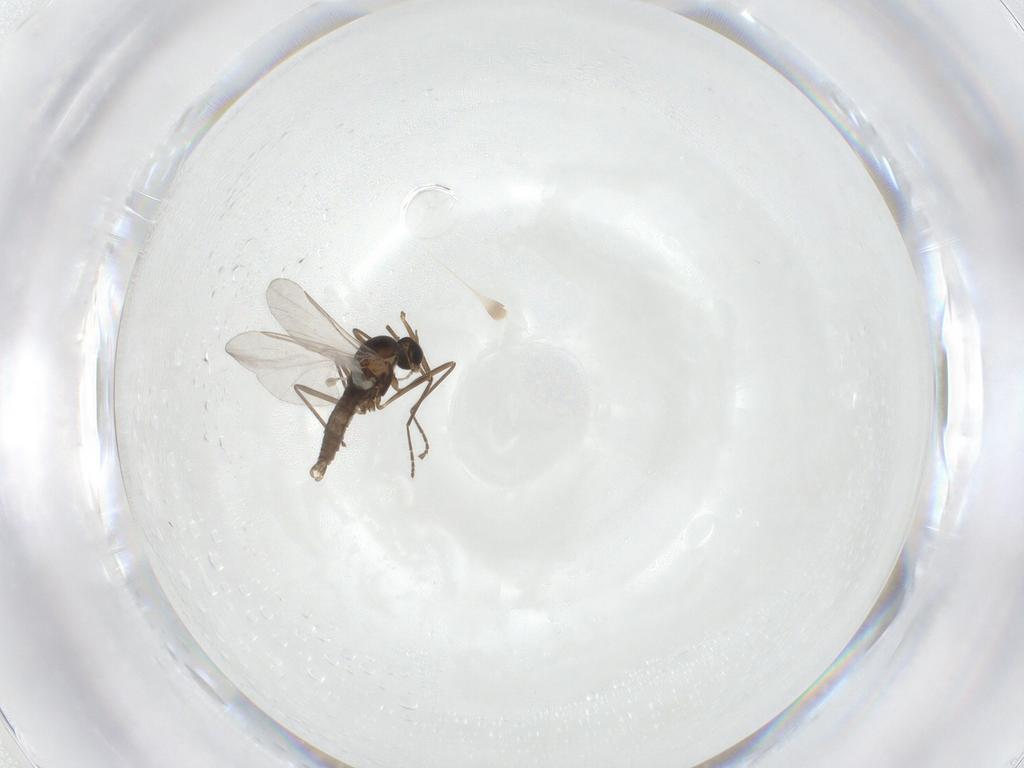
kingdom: Animalia
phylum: Arthropoda
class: Insecta
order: Diptera
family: Cecidomyiidae
